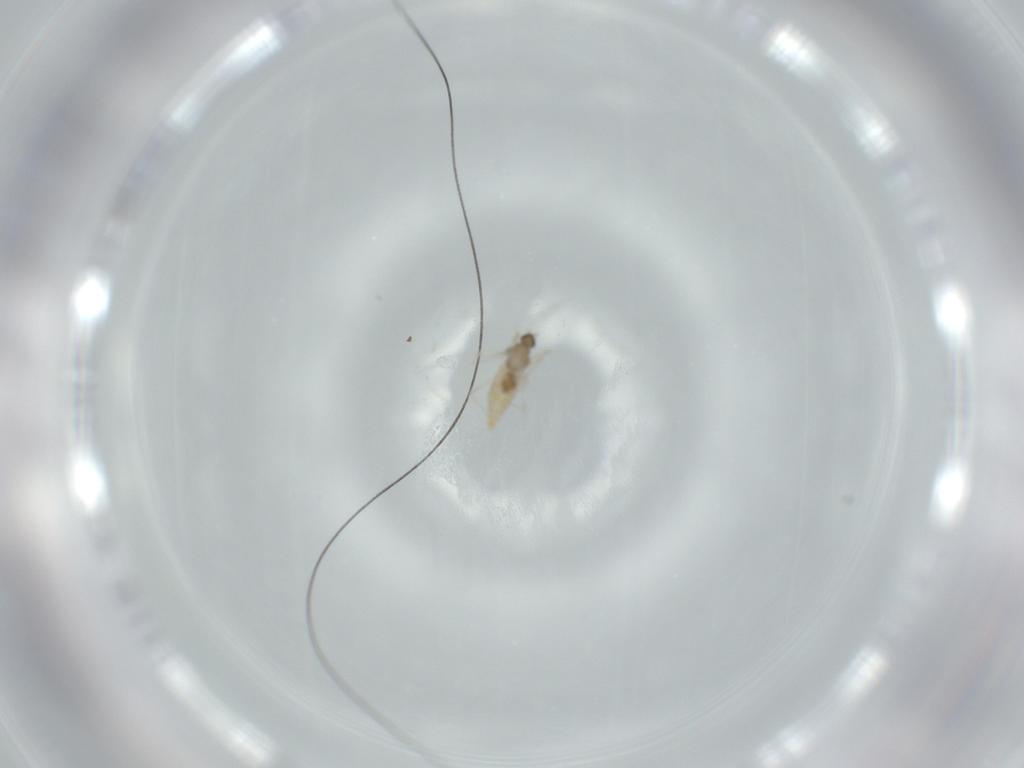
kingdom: Animalia
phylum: Arthropoda
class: Insecta
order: Diptera
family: Cecidomyiidae
